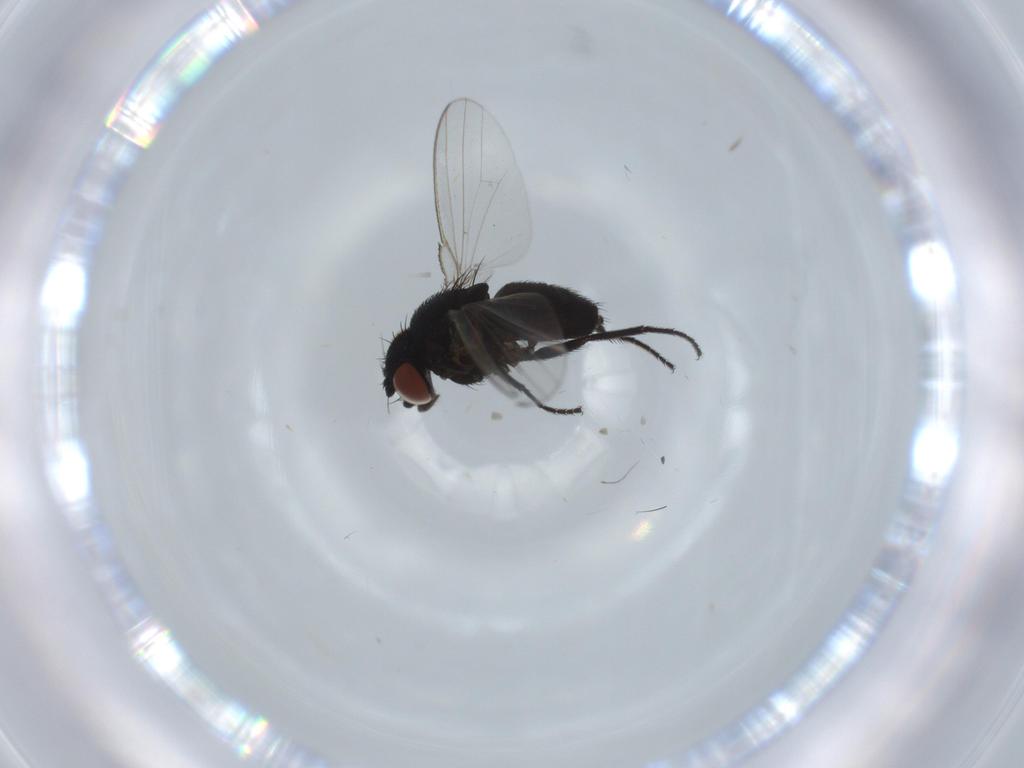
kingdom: Animalia
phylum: Arthropoda
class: Insecta
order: Diptera
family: Milichiidae
